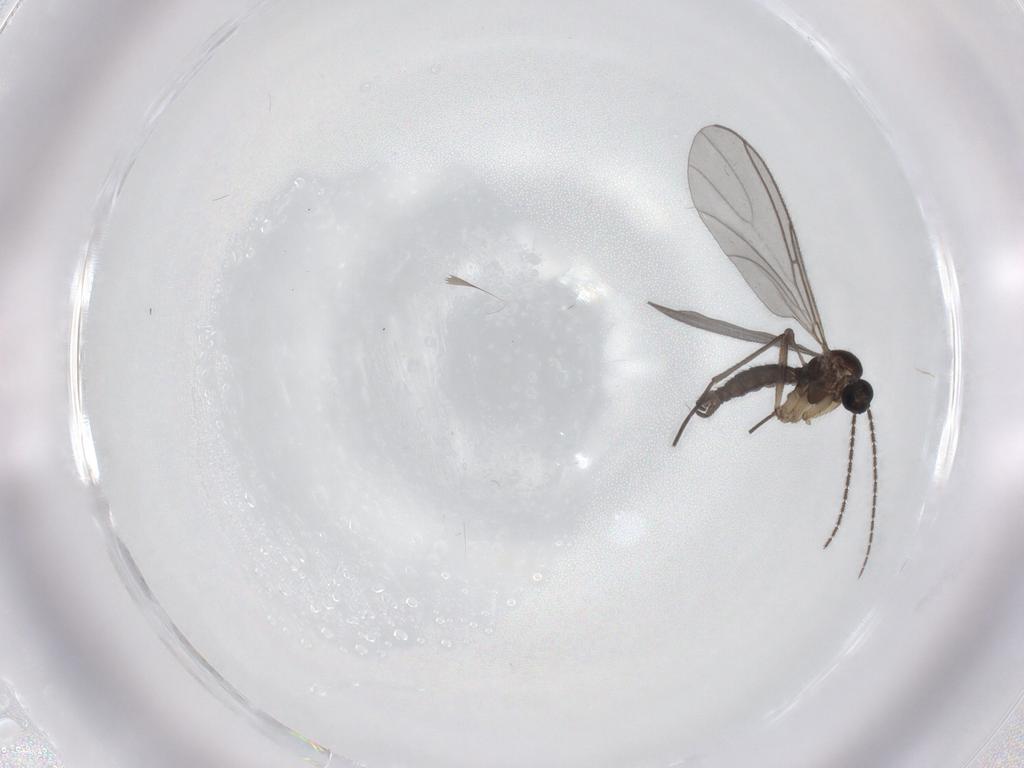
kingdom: Animalia
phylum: Arthropoda
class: Insecta
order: Diptera
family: Sciaridae
